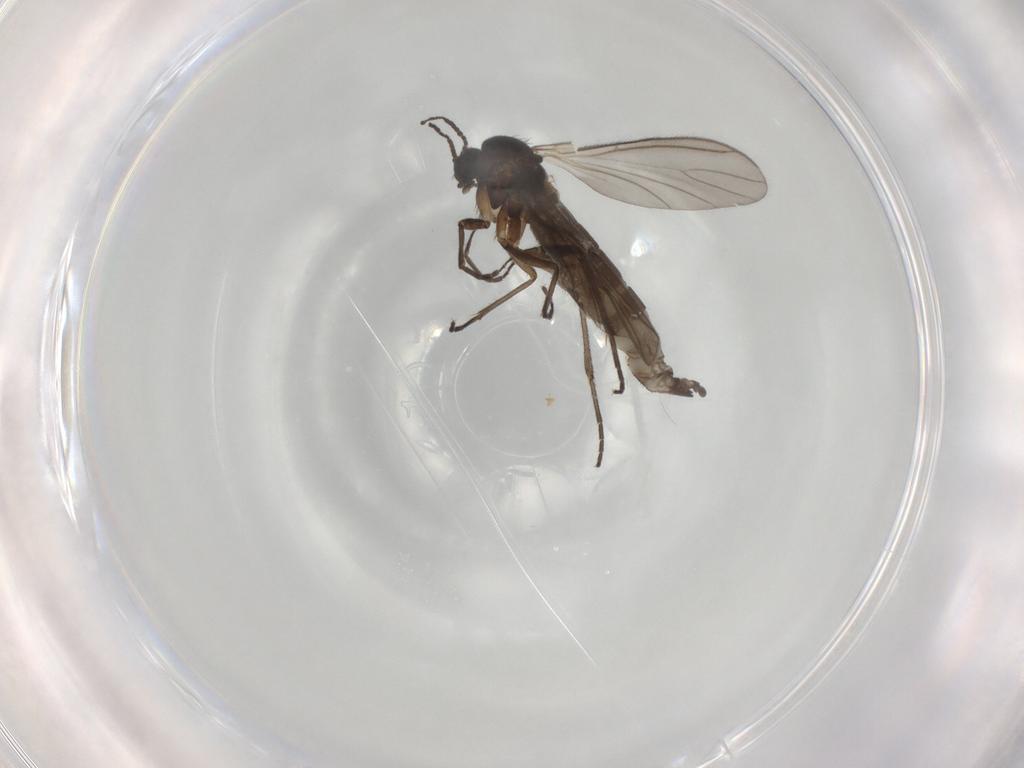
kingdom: Animalia
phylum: Arthropoda
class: Insecta
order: Diptera
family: Sciaridae
